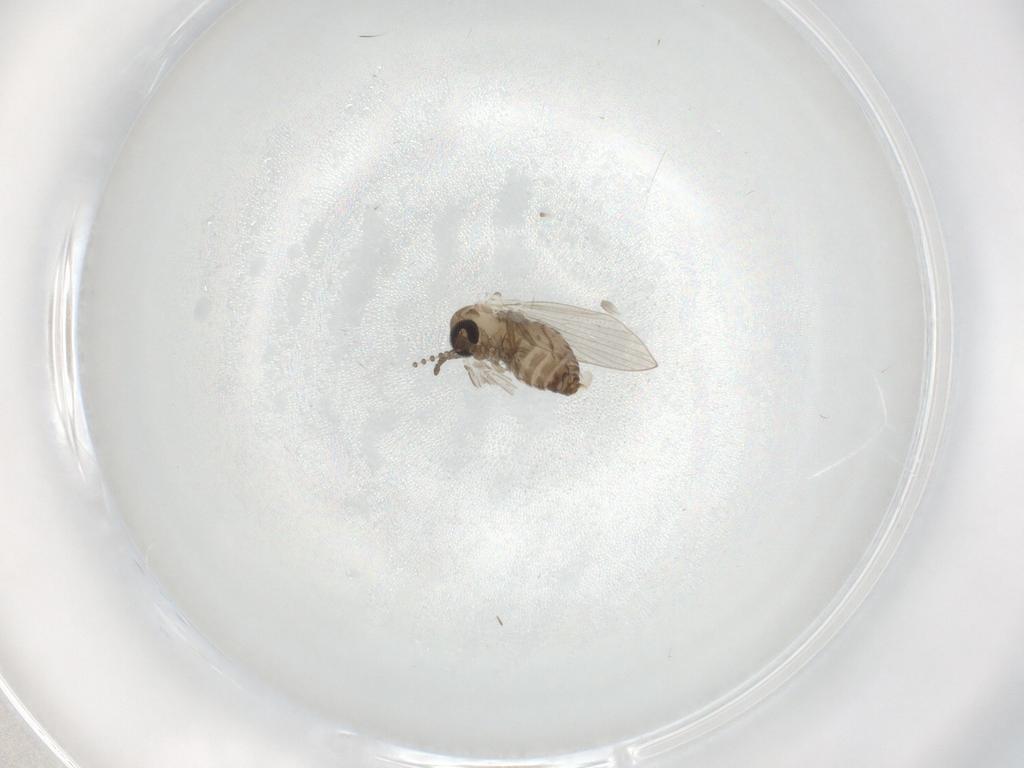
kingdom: Animalia
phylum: Arthropoda
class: Insecta
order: Diptera
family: Psychodidae
